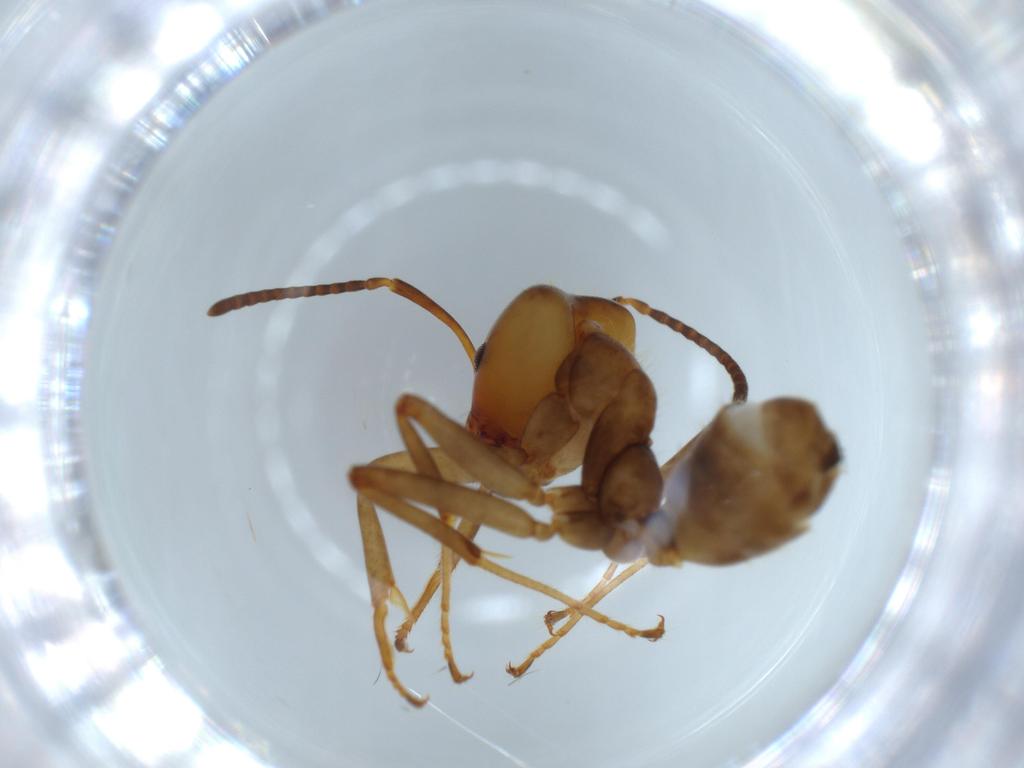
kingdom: Animalia
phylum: Arthropoda
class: Insecta
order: Hymenoptera
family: Formicidae
